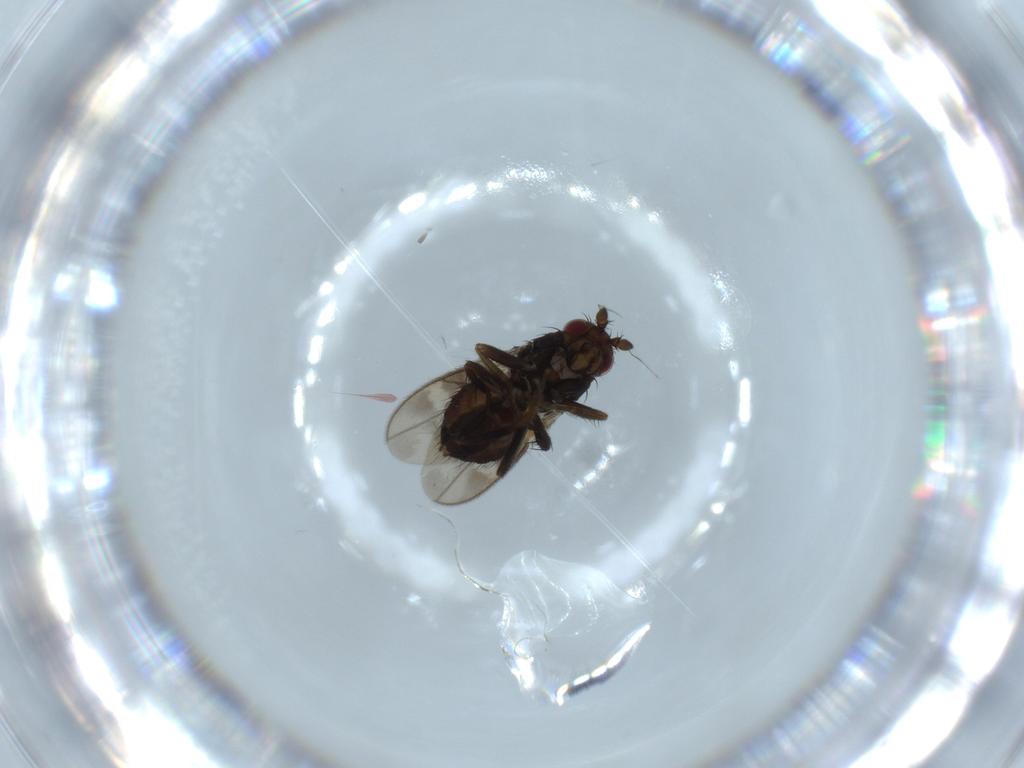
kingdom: Animalia
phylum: Arthropoda
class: Insecta
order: Diptera
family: Sphaeroceridae
